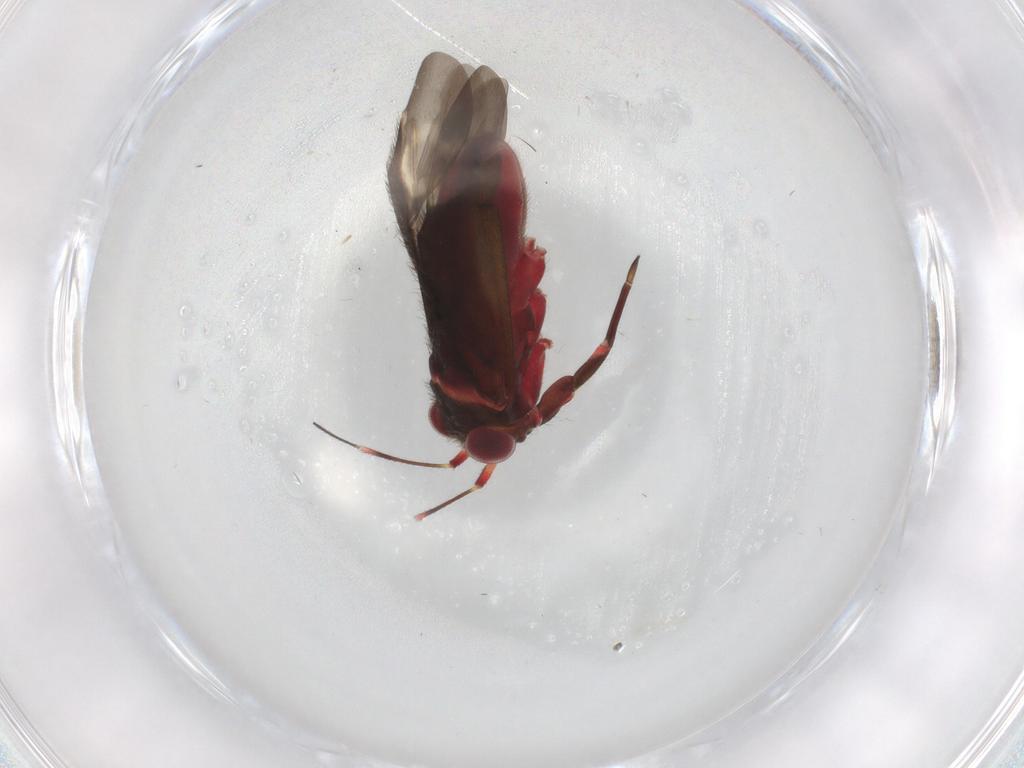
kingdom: Animalia
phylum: Arthropoda
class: Insecta
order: Hemiptera
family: Miridae
